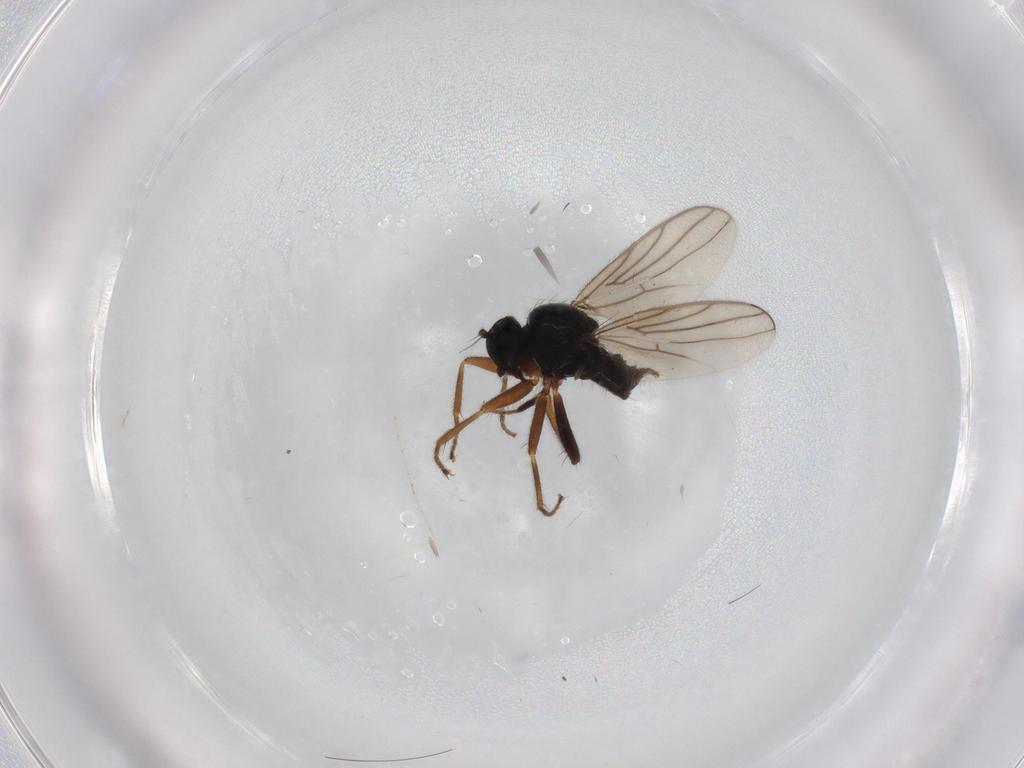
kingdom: Animalia
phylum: Arthropoda
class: Insecta
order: Diptera
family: Hybotidae
